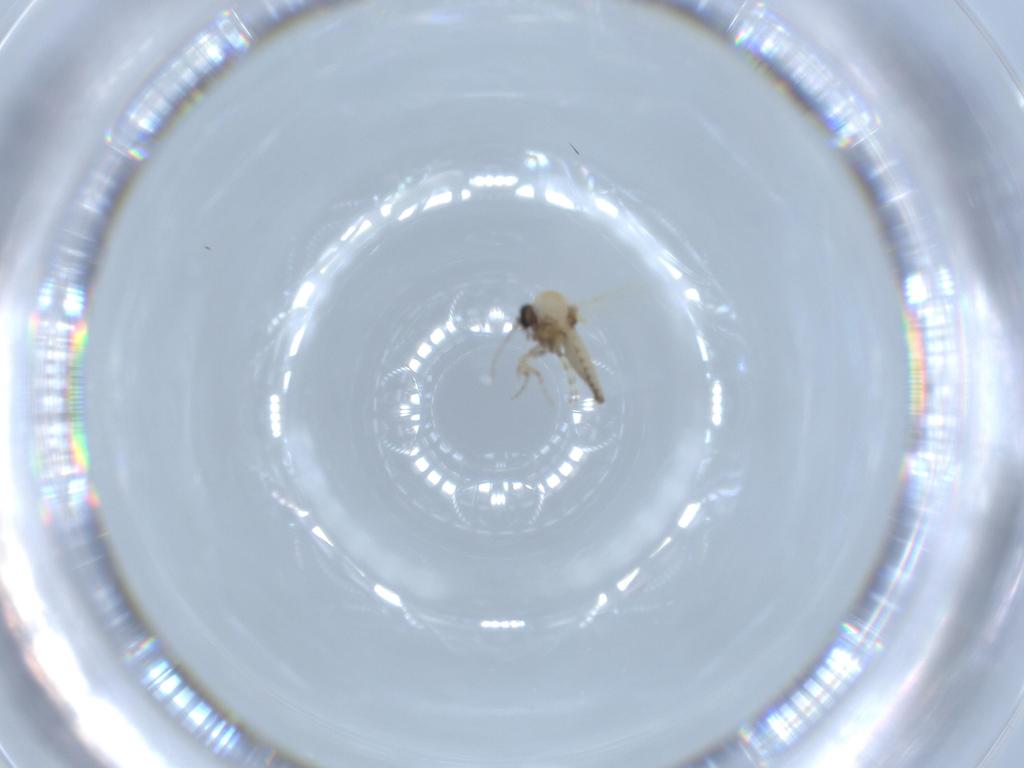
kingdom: Animalia
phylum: Arthropoda
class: Insecta
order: Diptera
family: Ceratopogonidae
